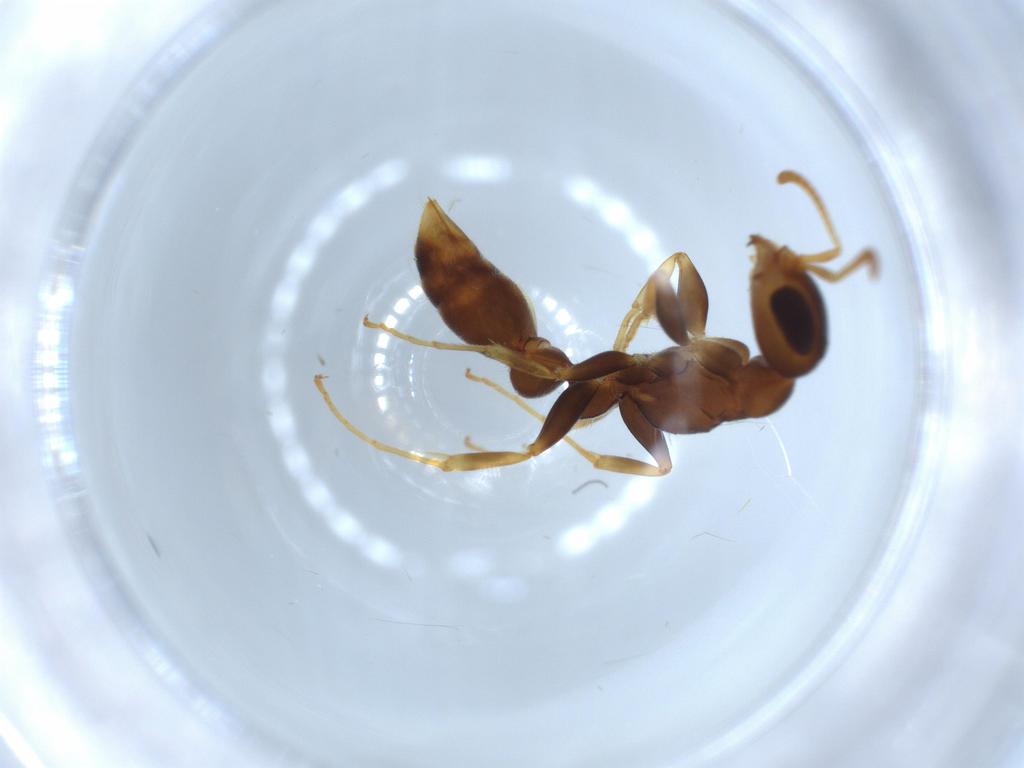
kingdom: Animalia
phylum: Arthropoda
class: Insecta
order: Hymenoptera
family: Formicidae
